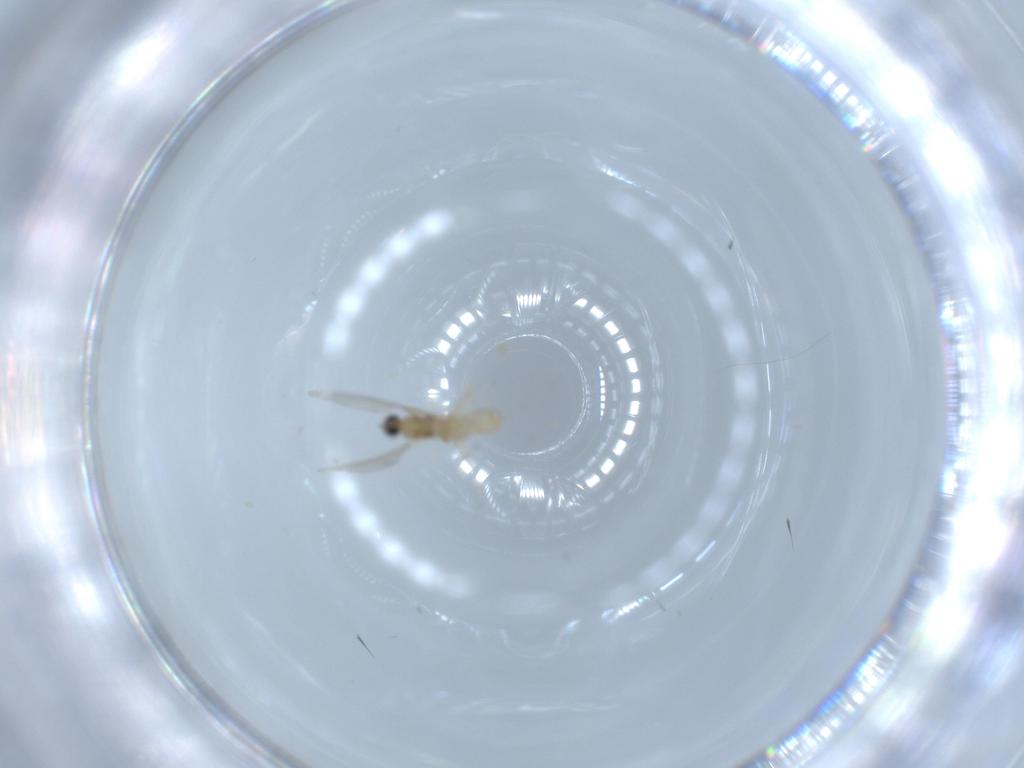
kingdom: Animalia
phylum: Arthropoda
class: Insecta
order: Diptera
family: Cecidomyiidae
